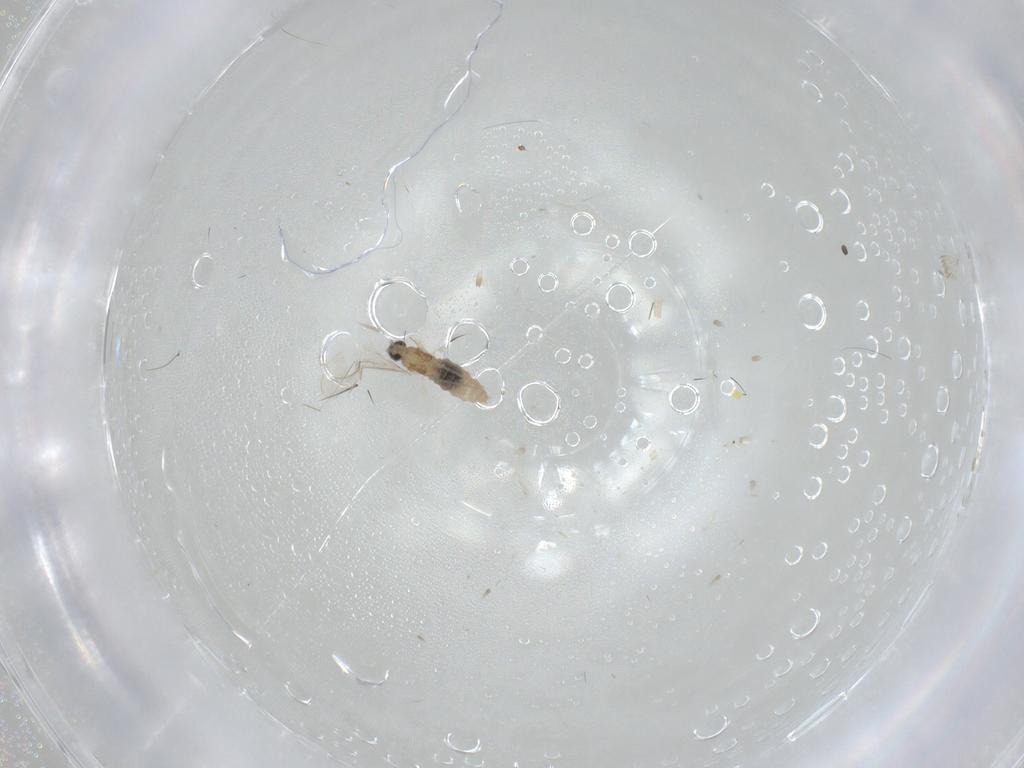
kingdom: Animalia
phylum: Arthropoda
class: Insecta
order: Diptera
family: Cecidomyiidae
